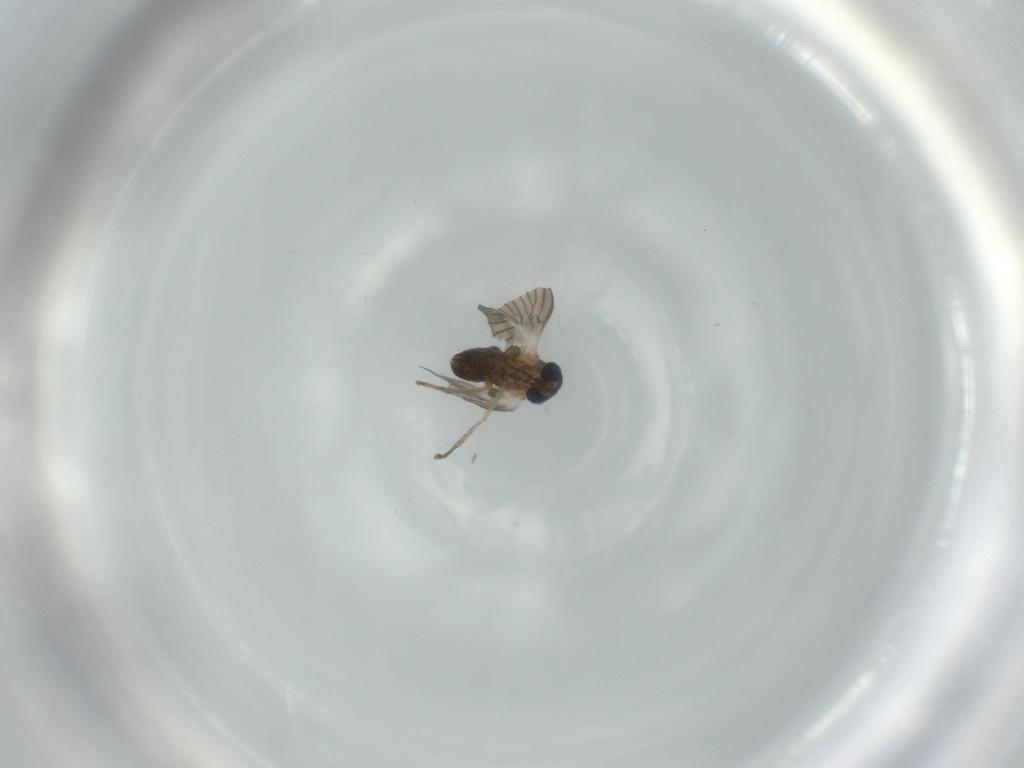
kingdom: Animalia
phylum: Arthropoda
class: Insecta
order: Diptera
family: Psychodidae
